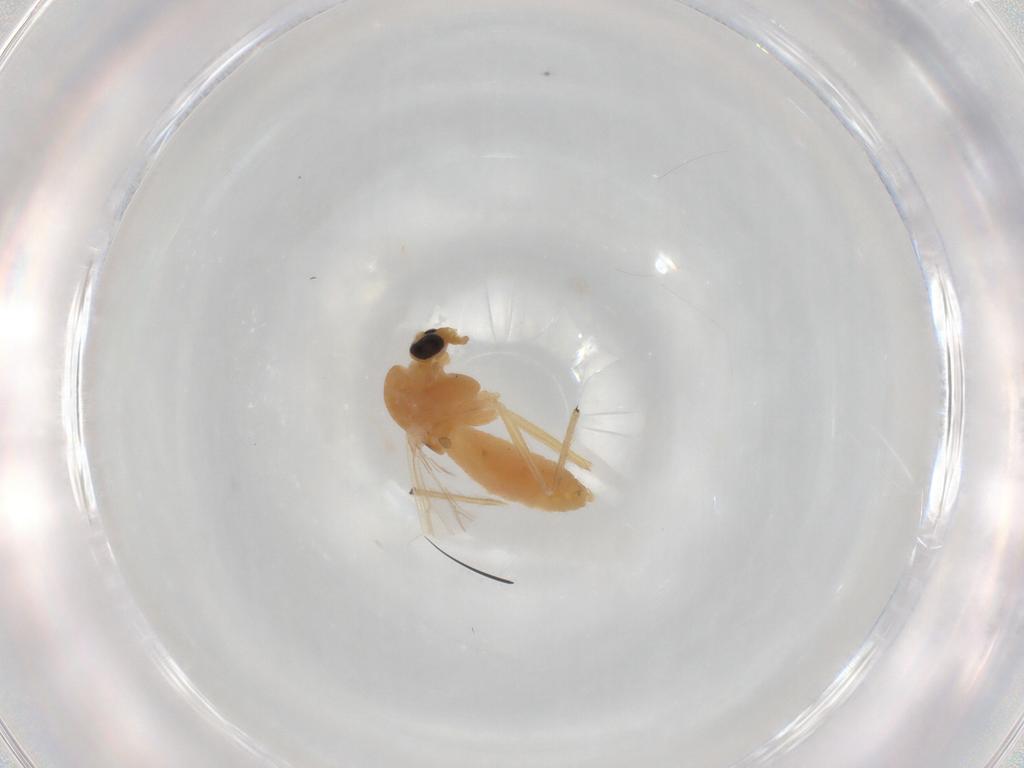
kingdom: Animalia
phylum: Arthropoda
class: Insecta
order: Diptera
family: Chironomidae
